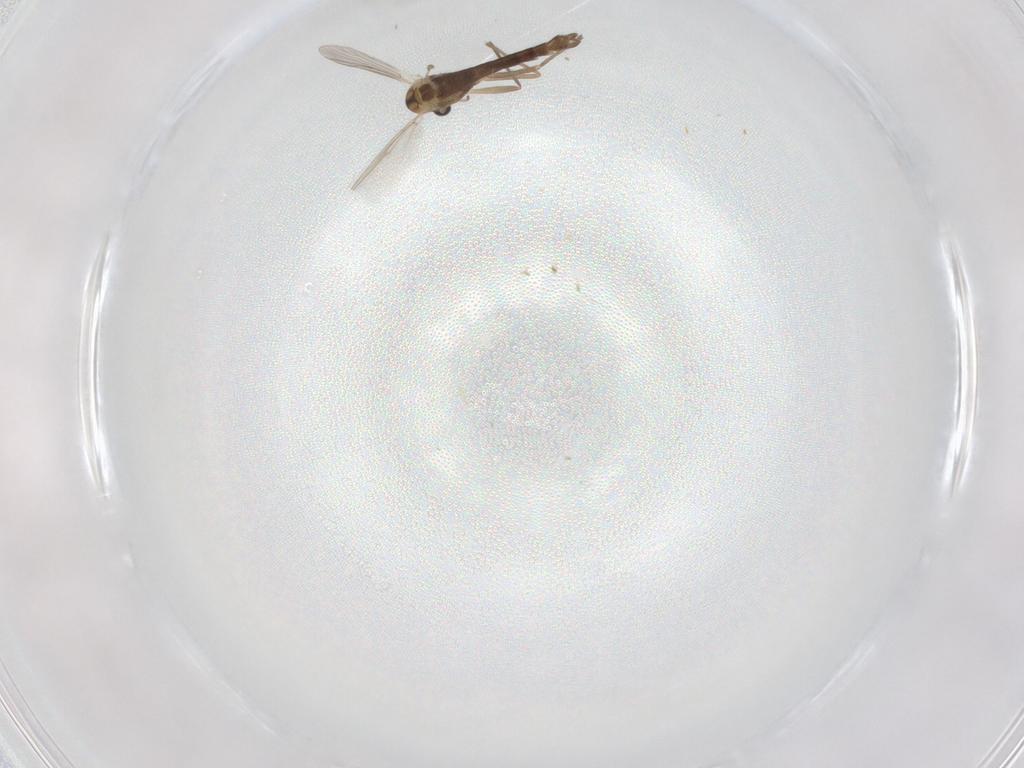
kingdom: Animalia
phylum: Arthropoda
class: Insecta
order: Diptera
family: Chironomidae
